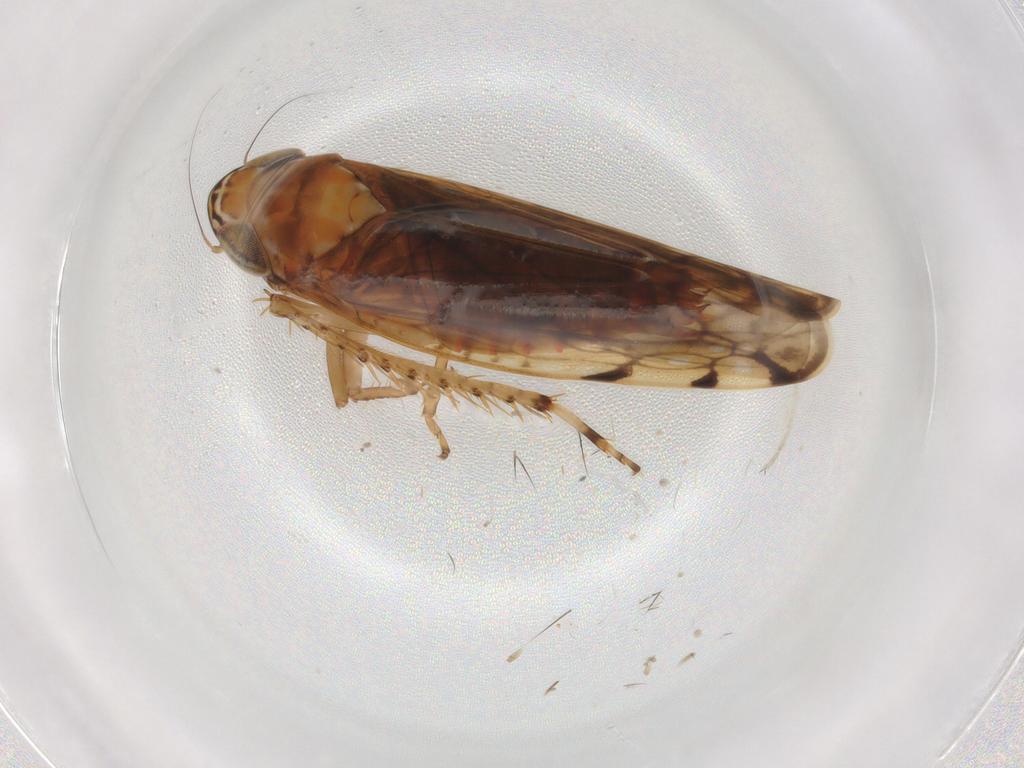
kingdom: Animalia
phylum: Arthropoda
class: Insecta
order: Hemiptera
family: Cicadellidae
